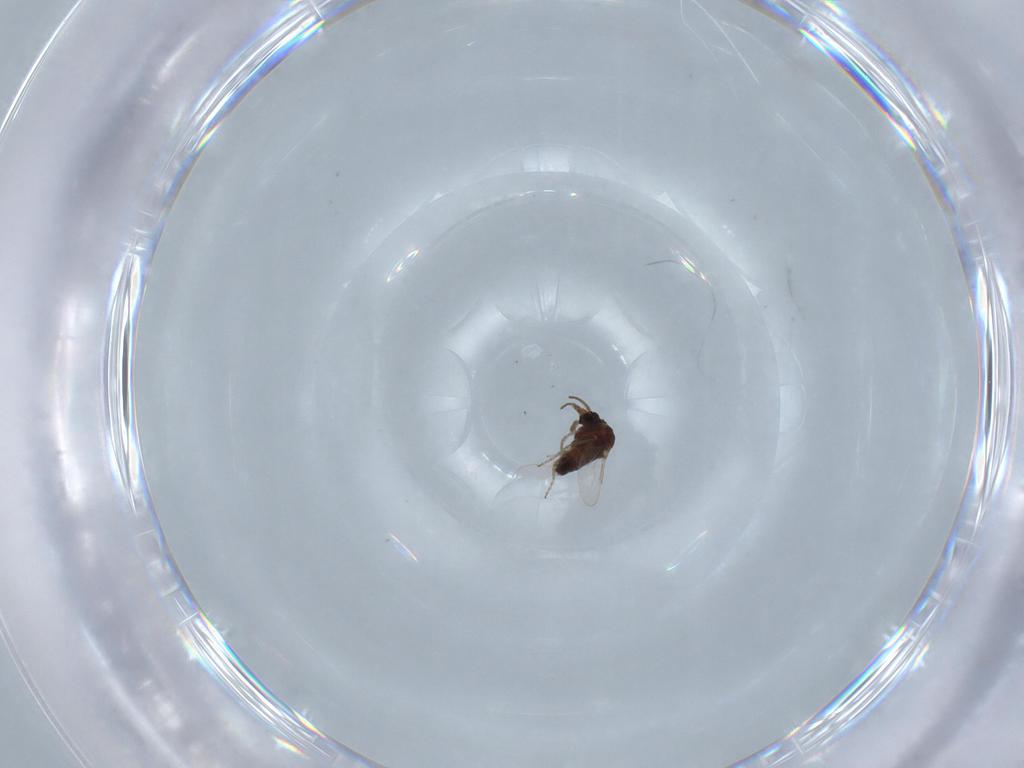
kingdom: Animalia
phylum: Arthropoda
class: Insecta
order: Diptera
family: Ceratopogonidae
